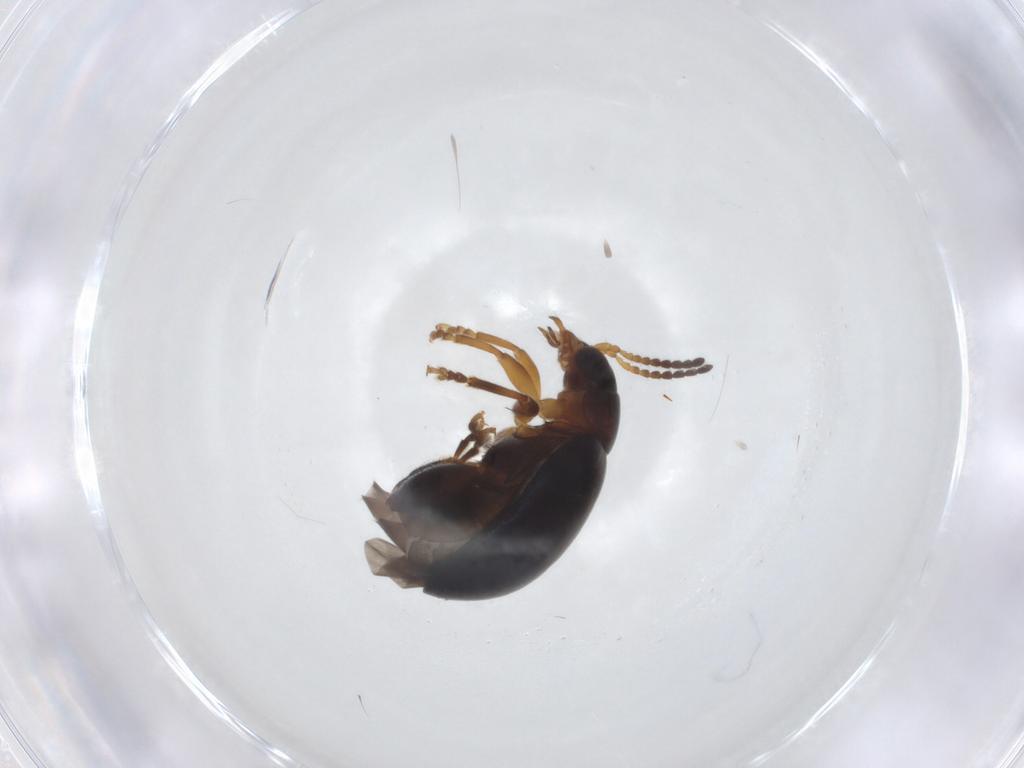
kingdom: Animalia
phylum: Arthropoda
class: Insecta
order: Coleoptera
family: Chrysomelidae
